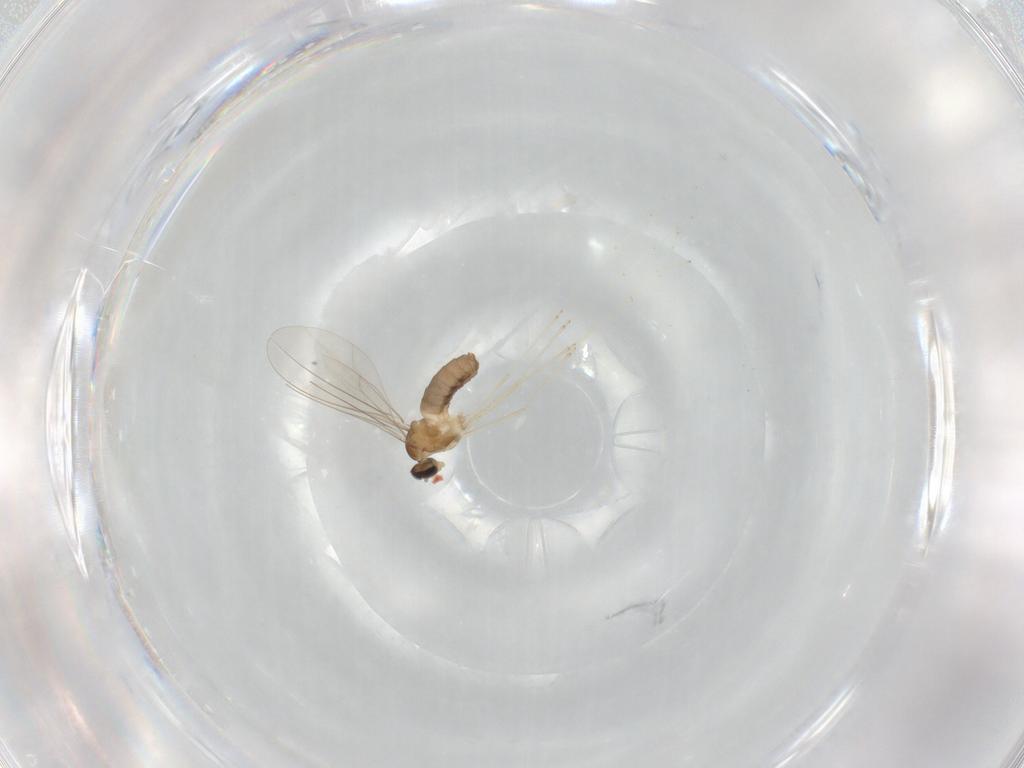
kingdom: Animalia
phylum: Arthropoda
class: Insecta
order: Diptera
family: Cecidomyiidae
